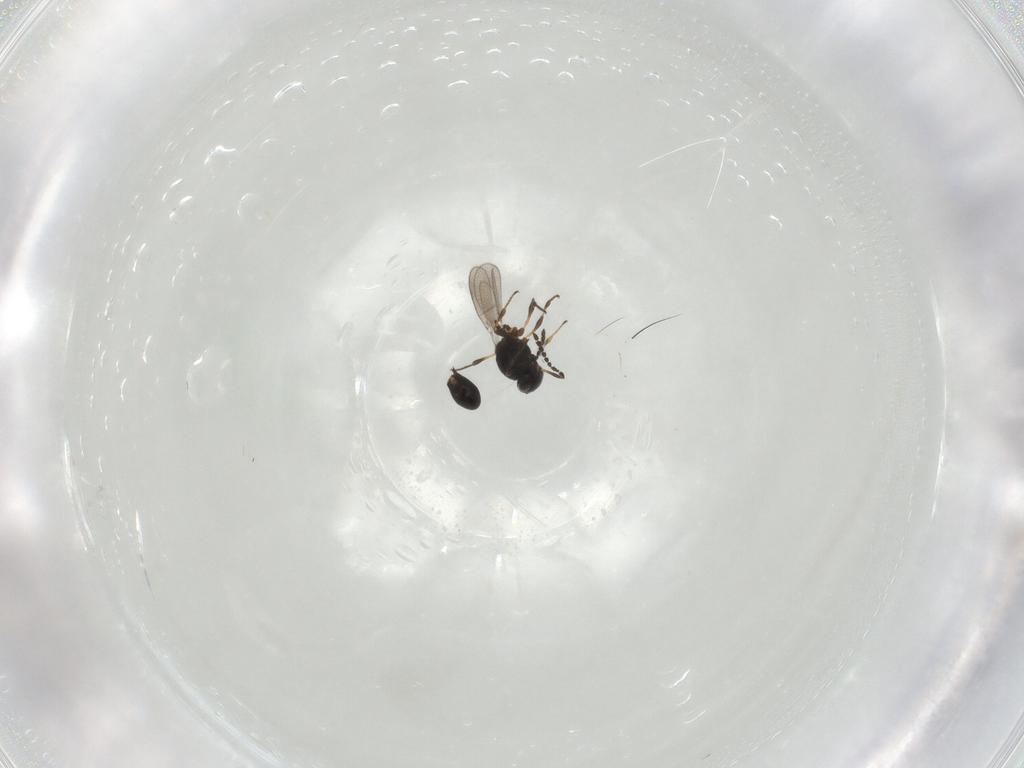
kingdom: Animalia
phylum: Arthropoda
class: Insecta
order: Hymenoptera
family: Platygastridae
